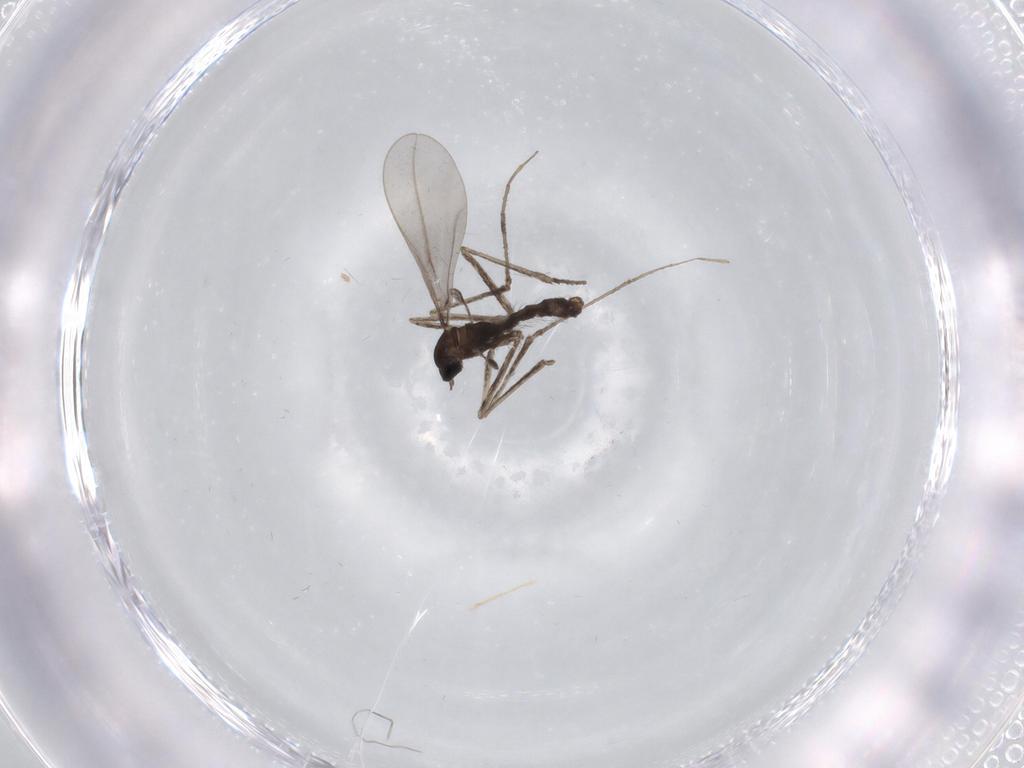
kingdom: Animalia
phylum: Arthropoda
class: Insecta
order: Diptera
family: Cecidomyiidae
